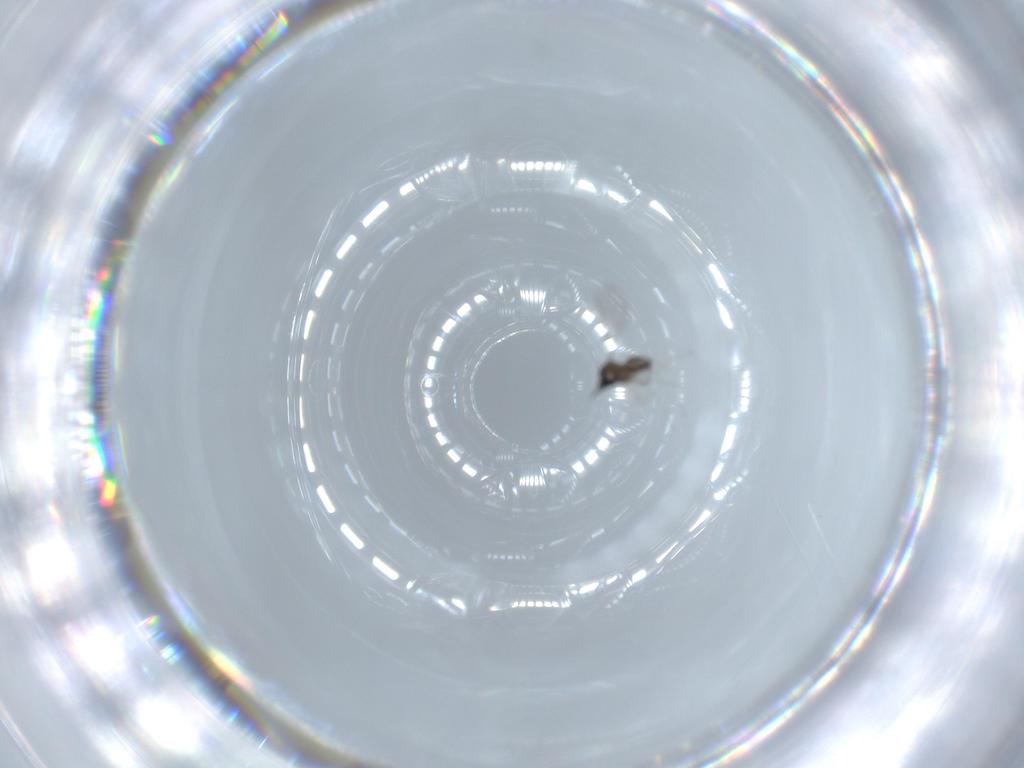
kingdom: Animalia
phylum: Arthropoda
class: Insecta
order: Diptera
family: Cecidomyiidae
